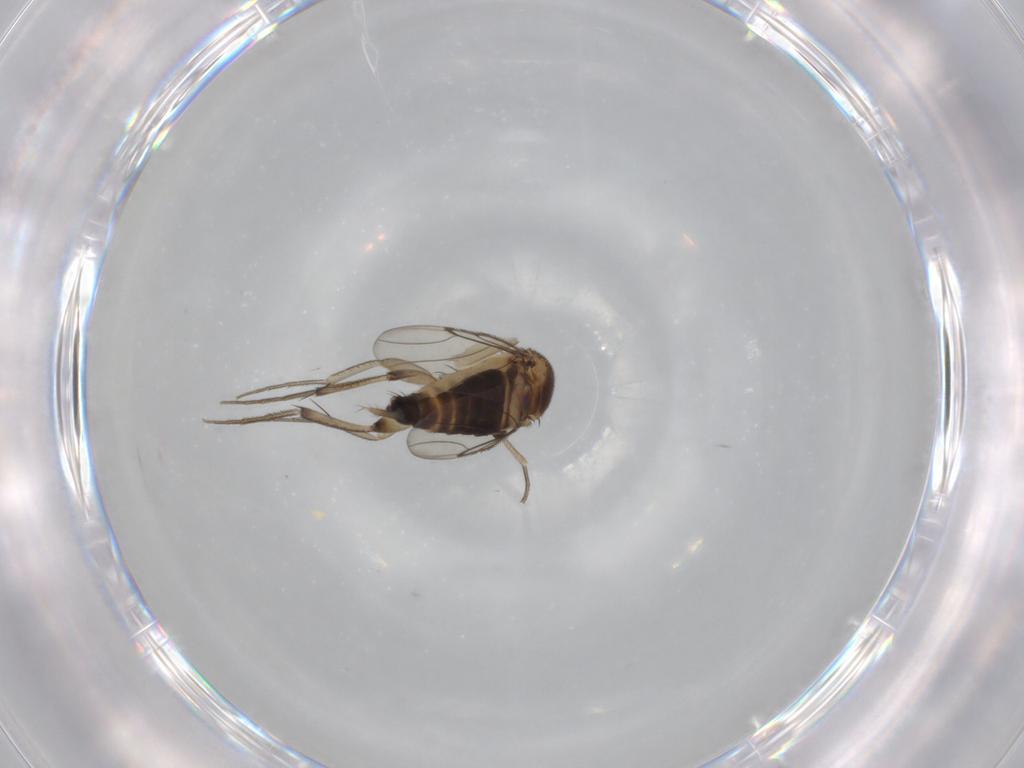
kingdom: Animalia
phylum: Arthropoda
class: Insecta
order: Diptera
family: Phoridae
